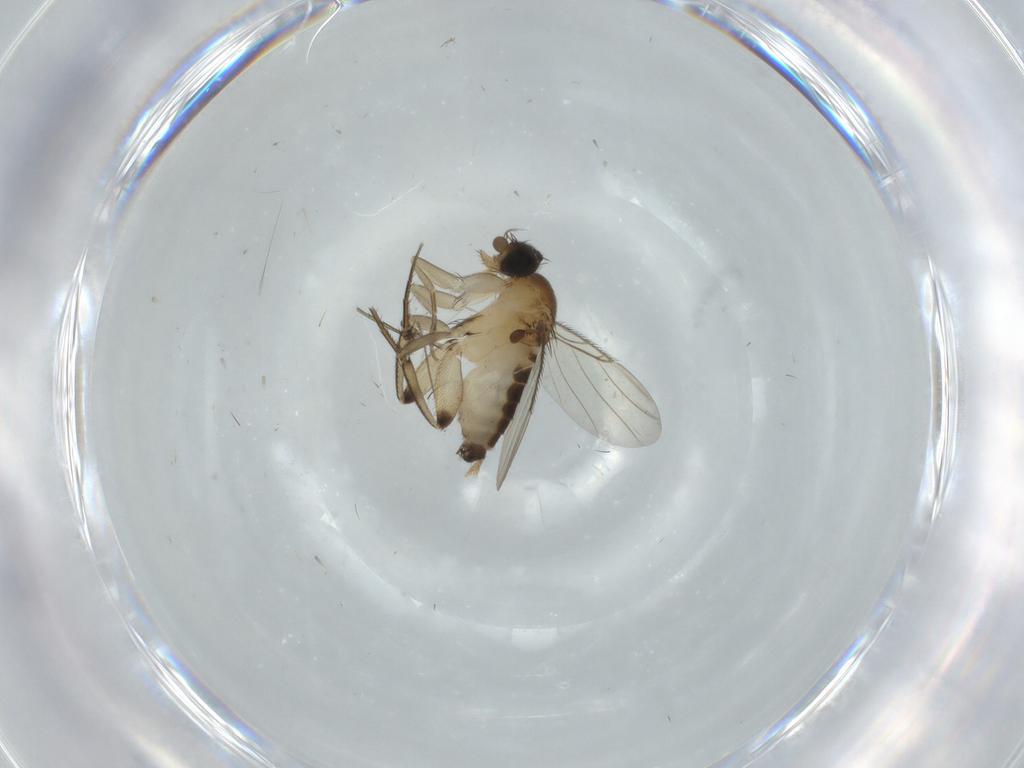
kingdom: Animalia
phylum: Arthropoda
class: Insecta
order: Diptera
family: Phoridae
